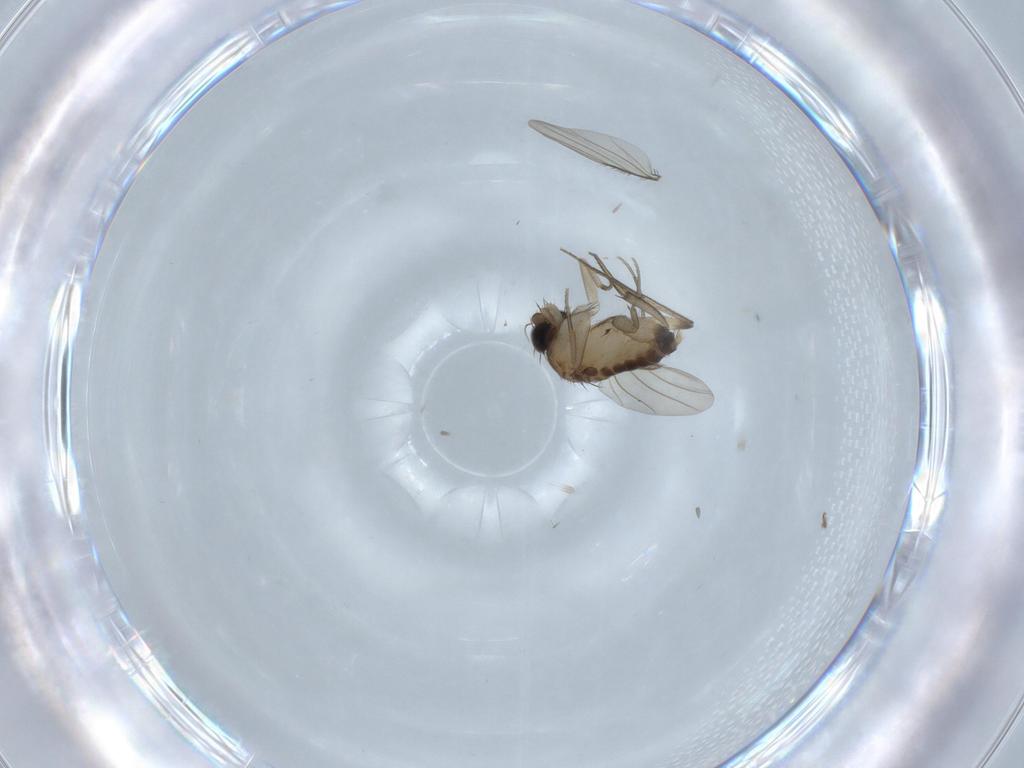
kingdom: Animalia
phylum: Arthropoda
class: Insecta
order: Diptera
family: Phoridae
